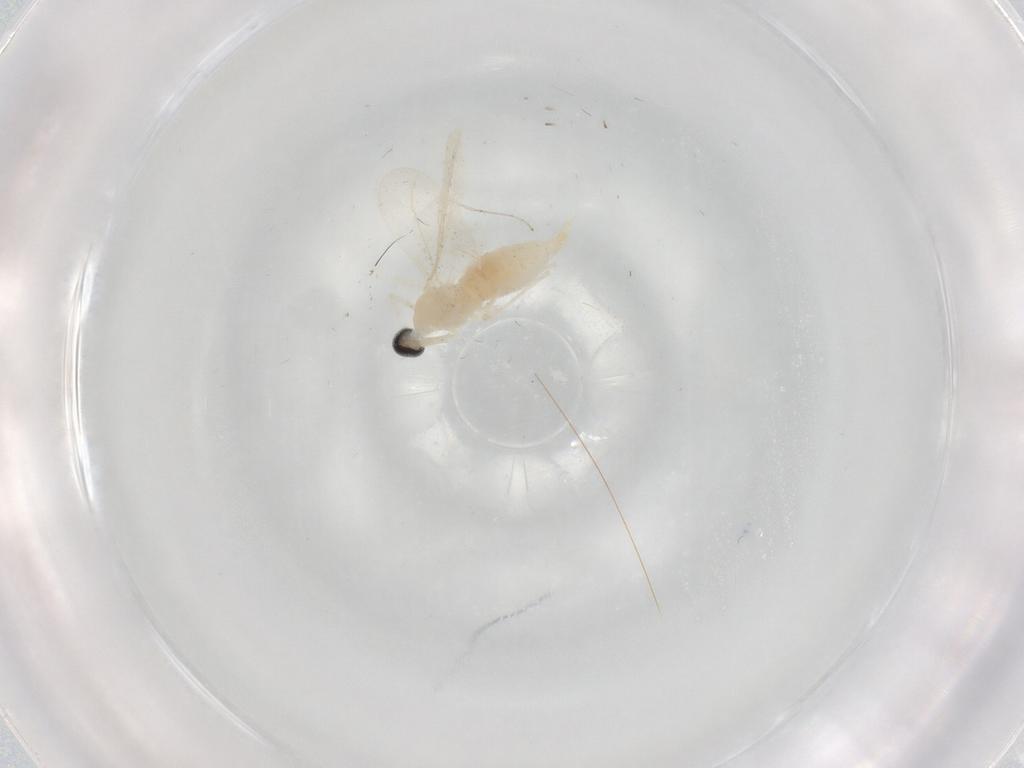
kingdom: Animalia
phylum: Arthropoda
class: Insecta
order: Diptera
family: Cecidomyiidae
